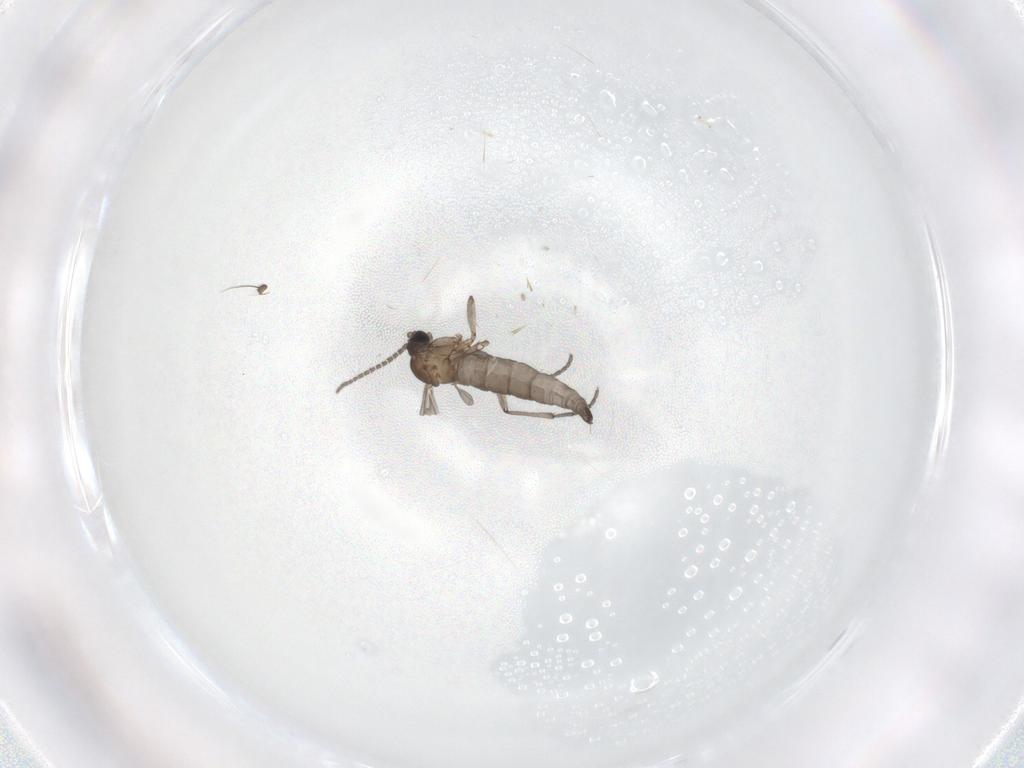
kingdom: Animalia
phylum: Arthropoda
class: Insecta
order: Diptera
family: Sciaridae
